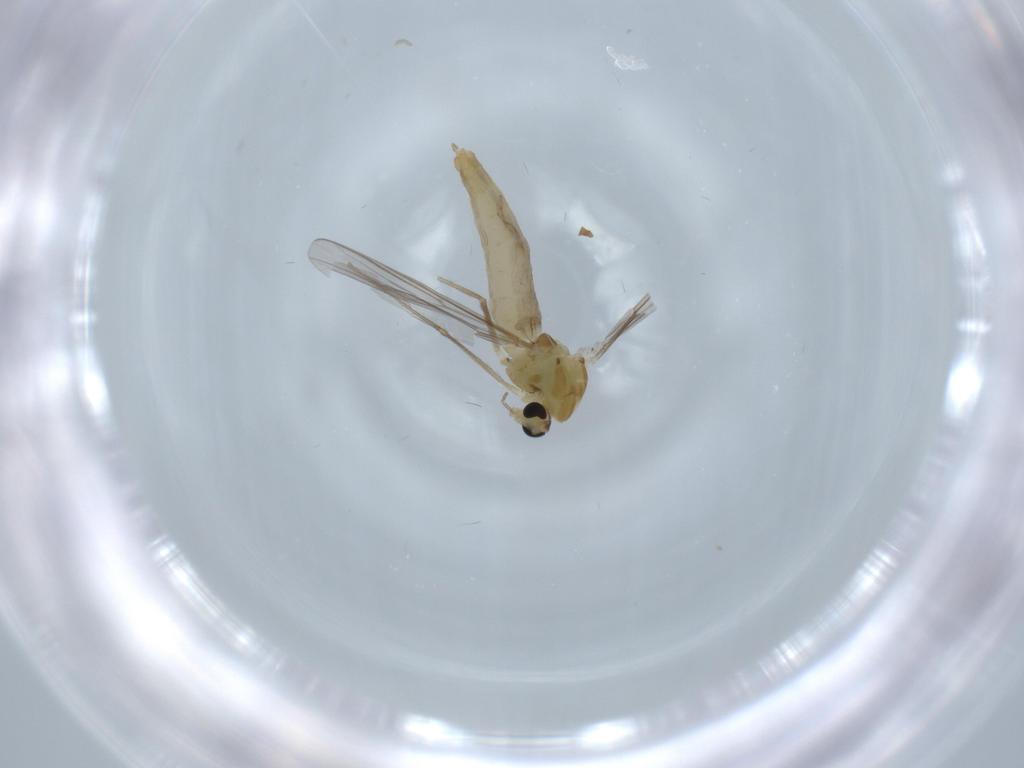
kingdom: Animalia
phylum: Arthropoda
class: Insecta
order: Diptera
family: Chironomidae
